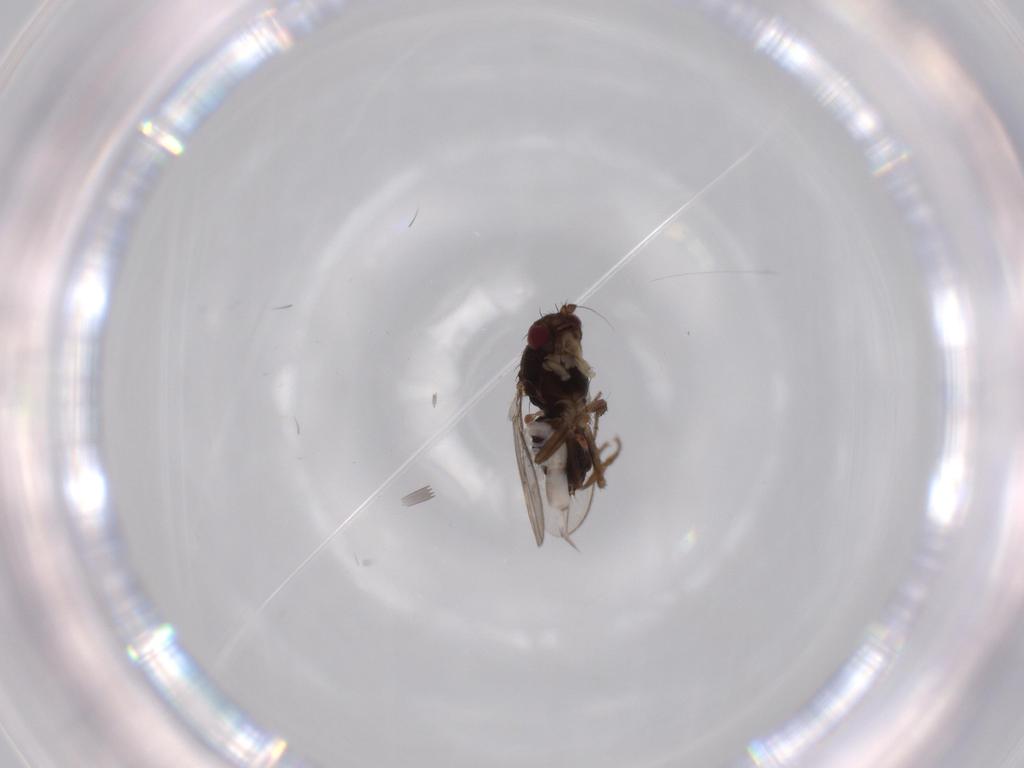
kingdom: Animalia
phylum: Arthropoda
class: Insecta
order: Diptera
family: Sphaeroceridae
